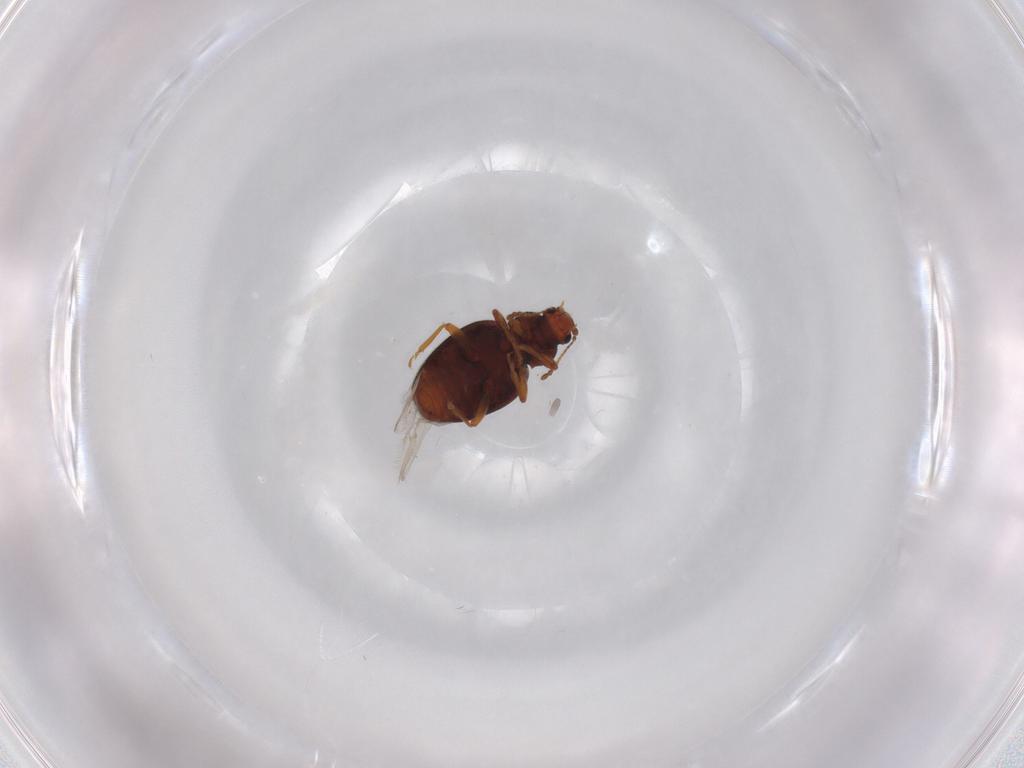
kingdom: Animalia
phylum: Arthropoda
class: Insecta
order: Coleoptera
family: Latridiidae
